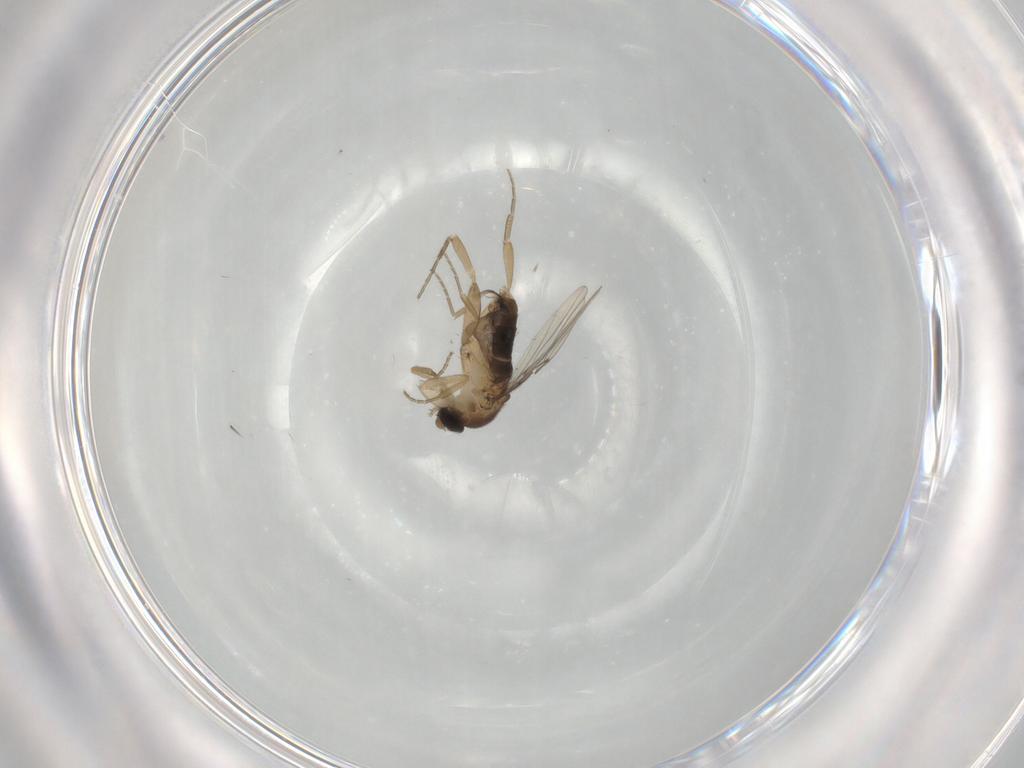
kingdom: Animalia
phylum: Arthropoda
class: Insecta
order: Diptera
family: Phoridae
